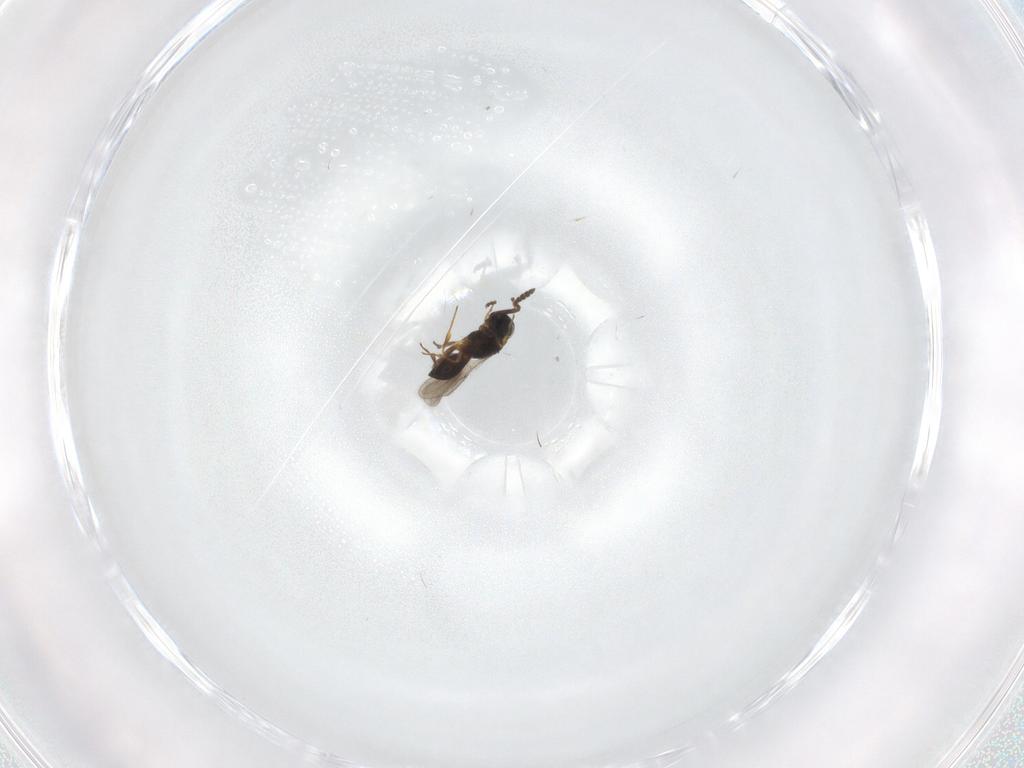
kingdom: Animalia
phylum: Arthropoda
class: Insecta
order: Hymenoptera
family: Scelionidae
